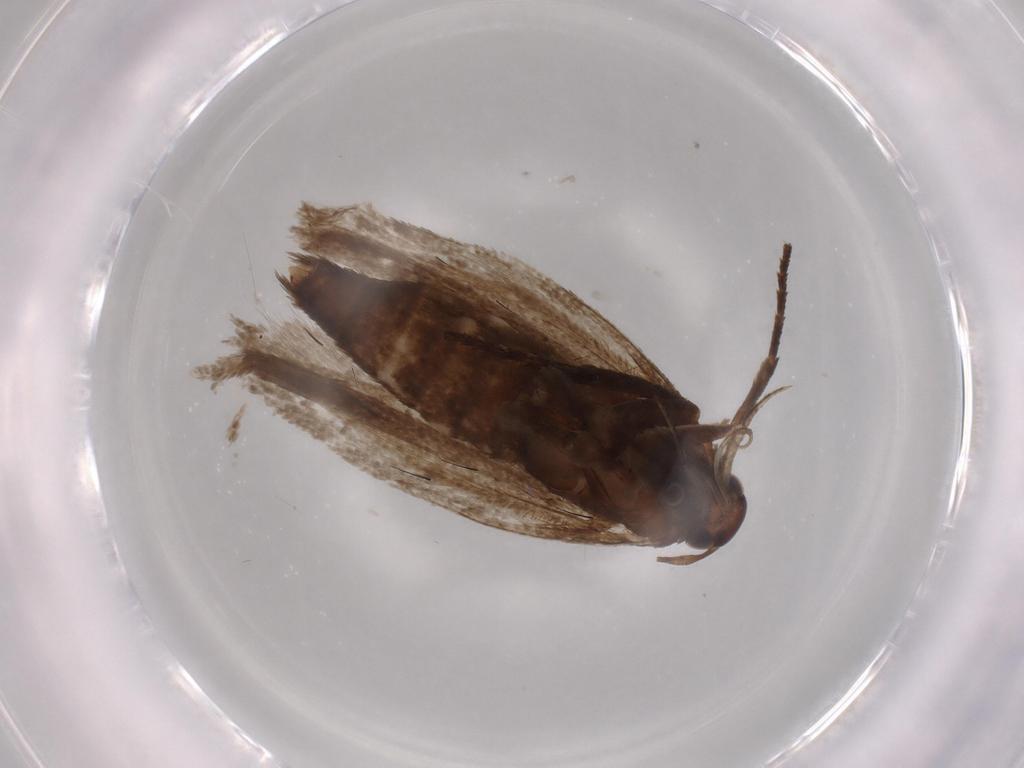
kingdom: Animalia
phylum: Arthropoda
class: Insecta
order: Lepidoptera
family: Gelechiidae
